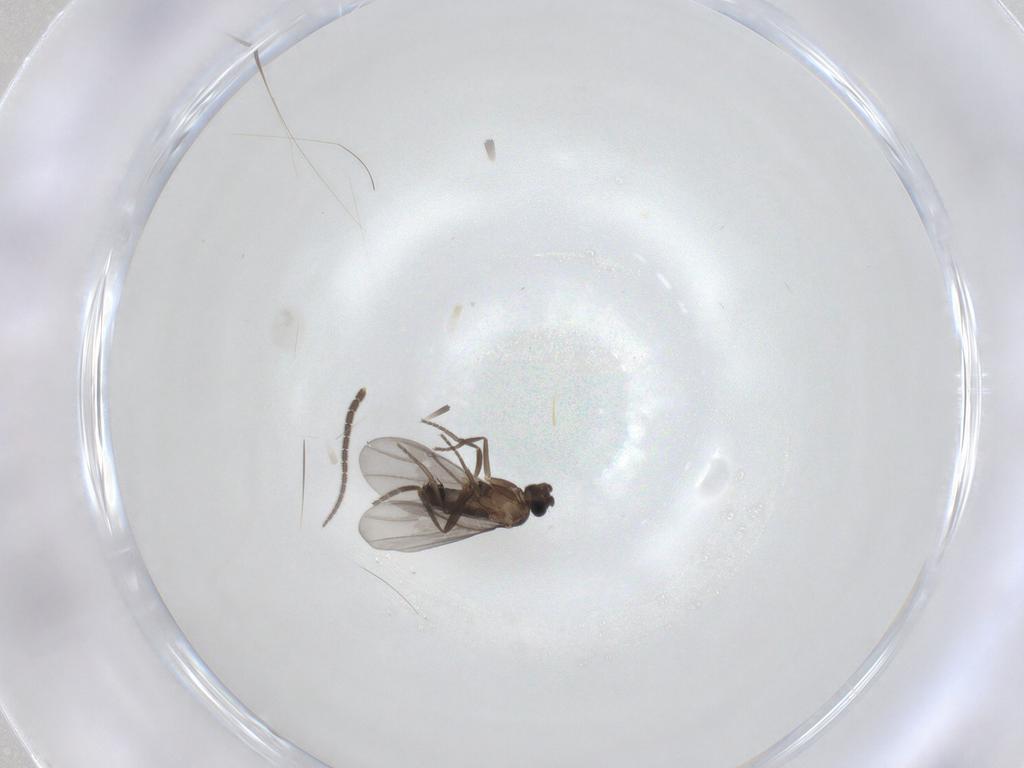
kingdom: Animalia
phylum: Arthropoda
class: Insecta
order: Diptera
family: Phoridae
